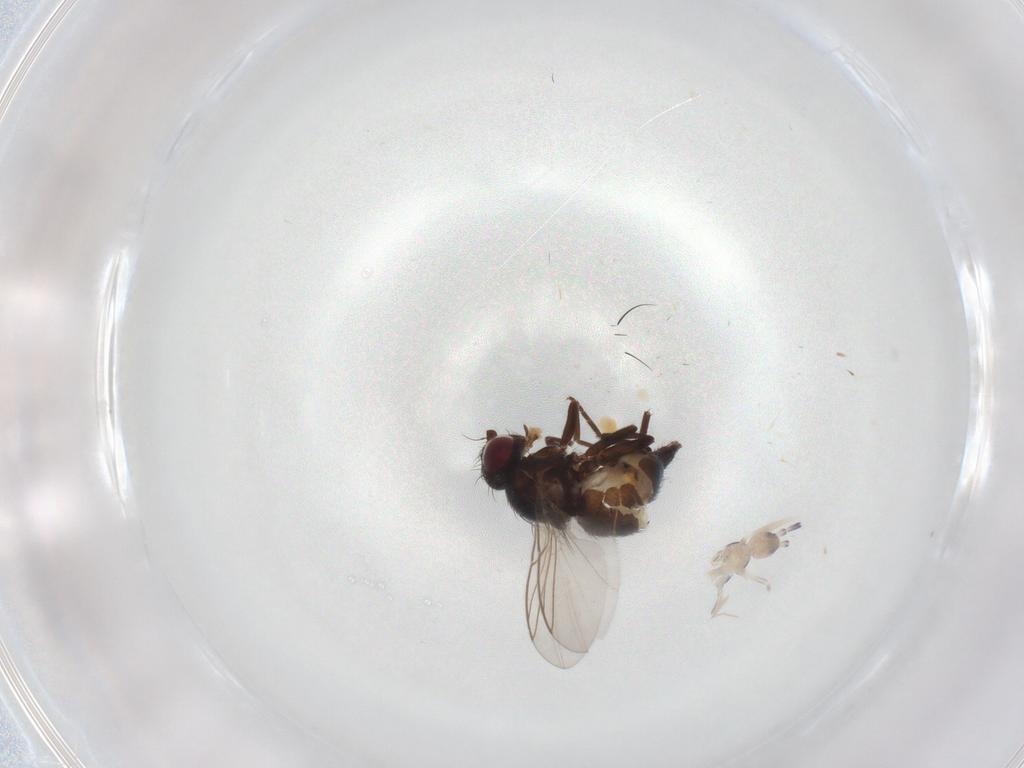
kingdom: Animalia
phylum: Arthropoda
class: Collembola
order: Poduromorpha
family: Hypogastruridae
